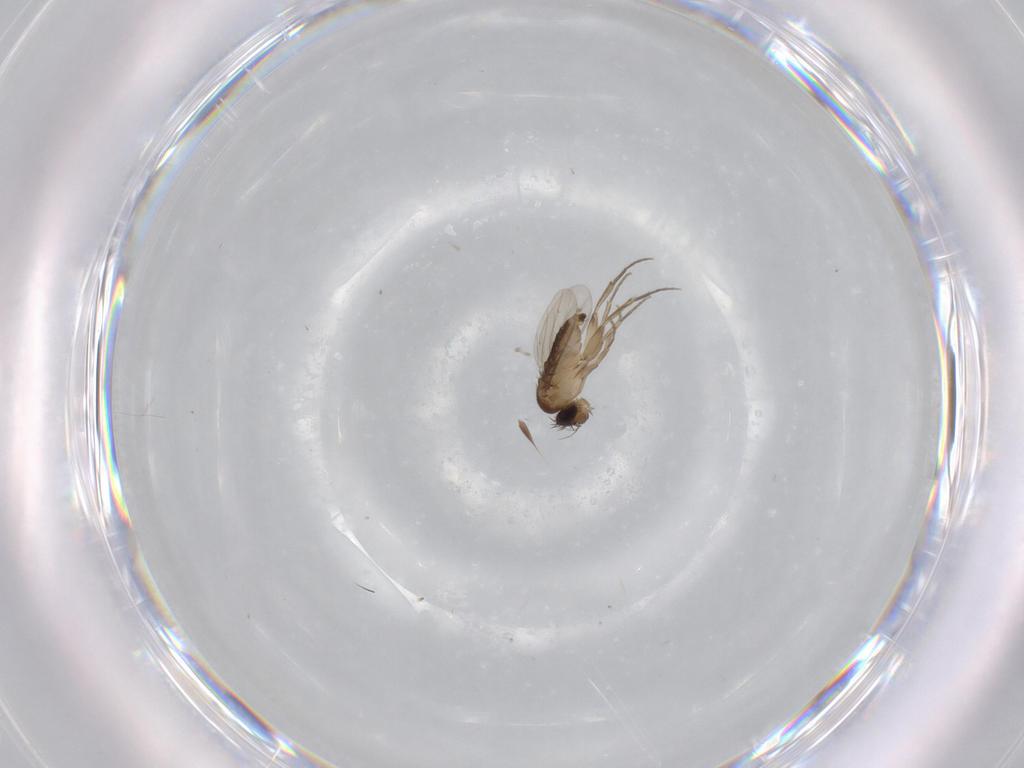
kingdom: Animalia
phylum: Arthropoda
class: Insecta
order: Diptera
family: Phoridae
